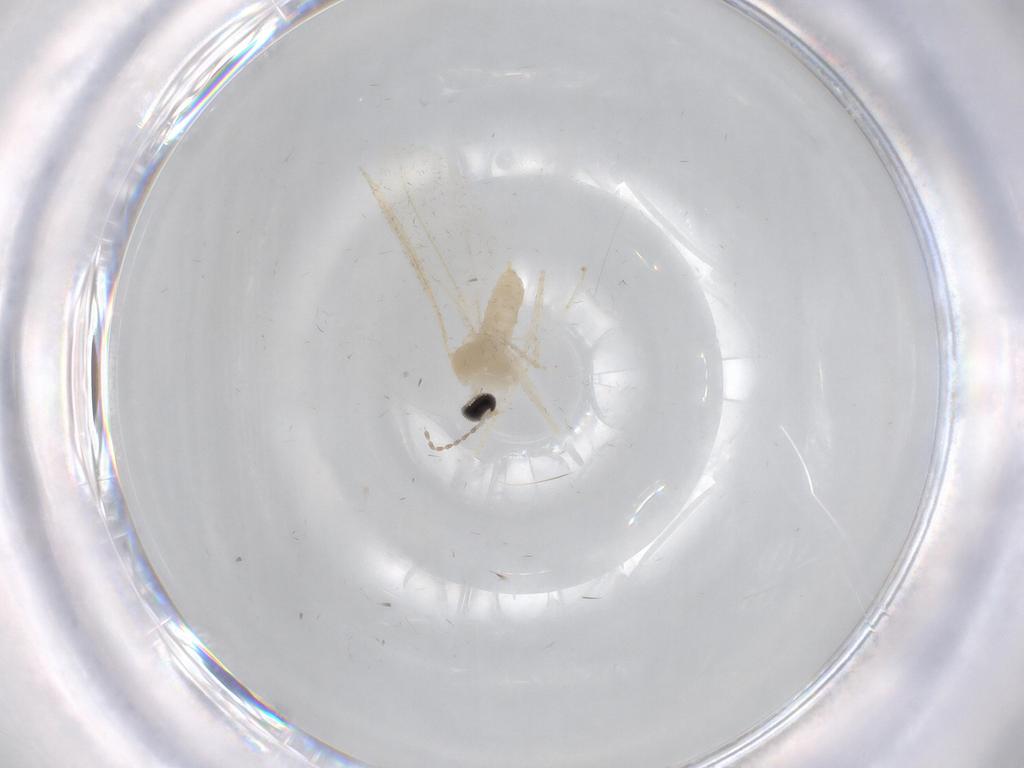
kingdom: Animalia
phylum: Arthropoda
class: Insecta
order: Diptera
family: Cecidomyiidae
